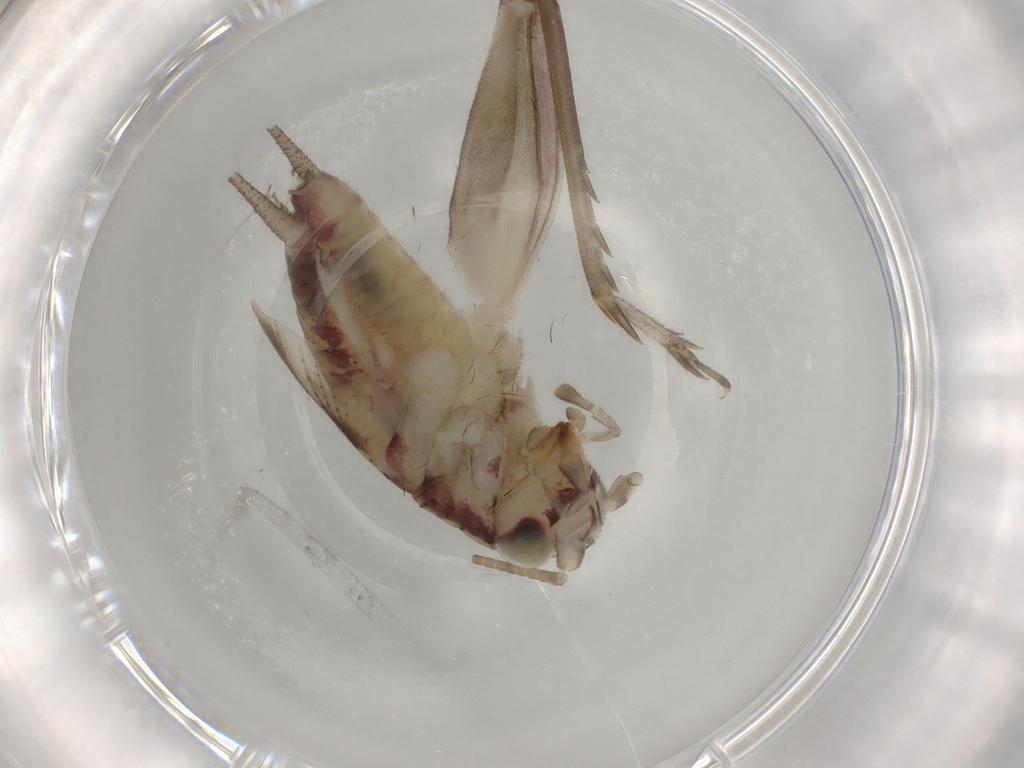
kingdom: Animalia
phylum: Arthropoda
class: Insecta
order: Orthoptera
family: Trigonidiidae
